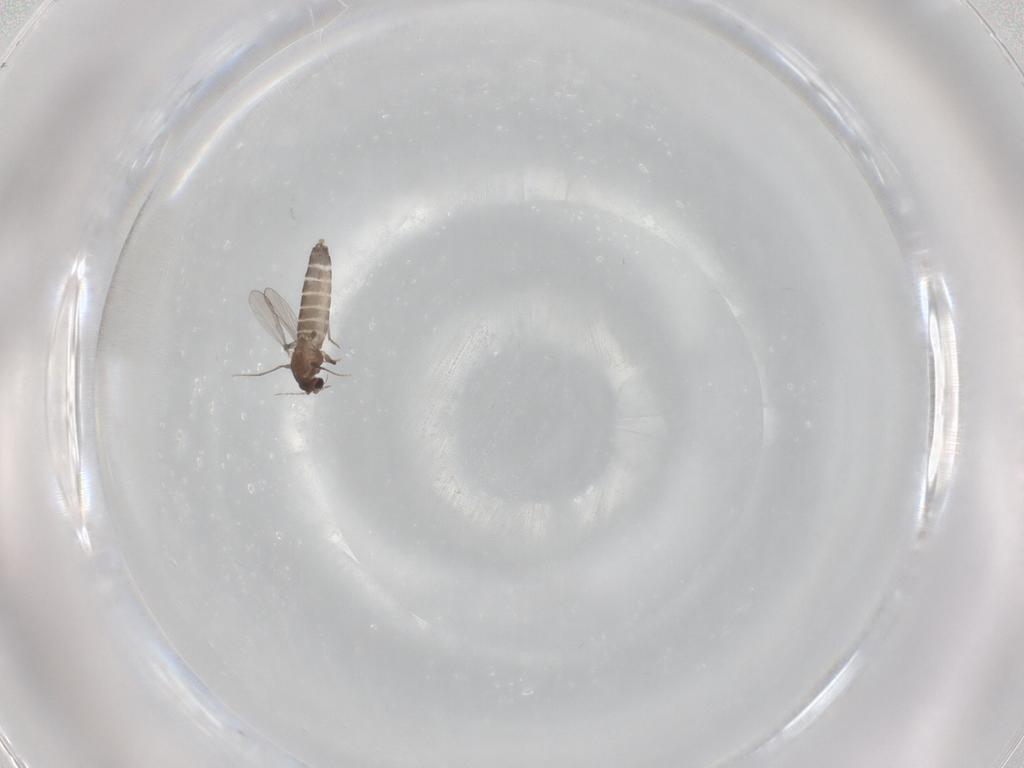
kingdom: Animalia
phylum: Arthropoda
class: Insecta
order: Diptera
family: Chironomidae
